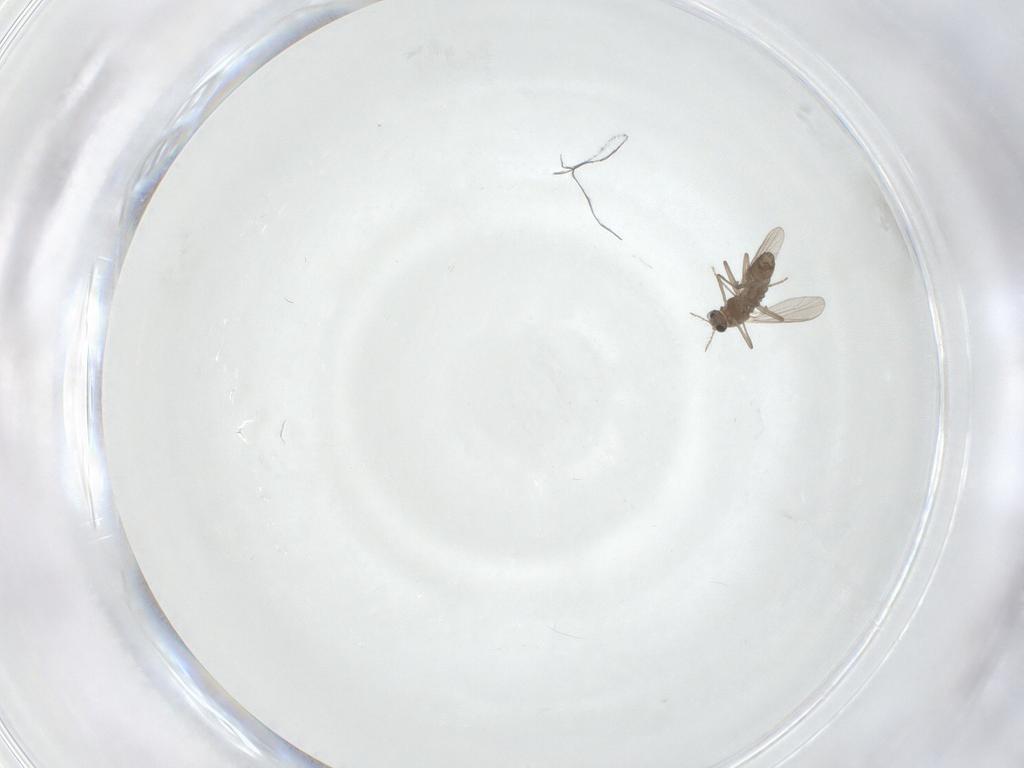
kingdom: Animalia
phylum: Arthropoda
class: Insecta
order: Diptera
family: Chironomidae
